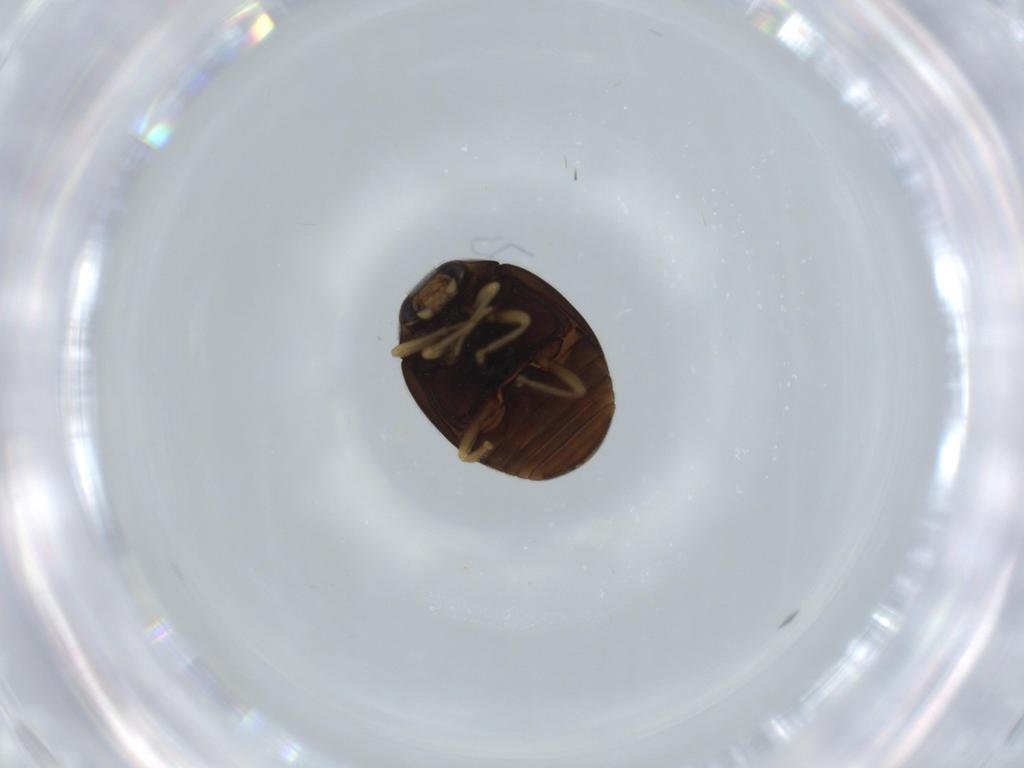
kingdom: Animalia
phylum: Arthropoda
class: Insecta
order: Coleoptera
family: Coccinellidae
